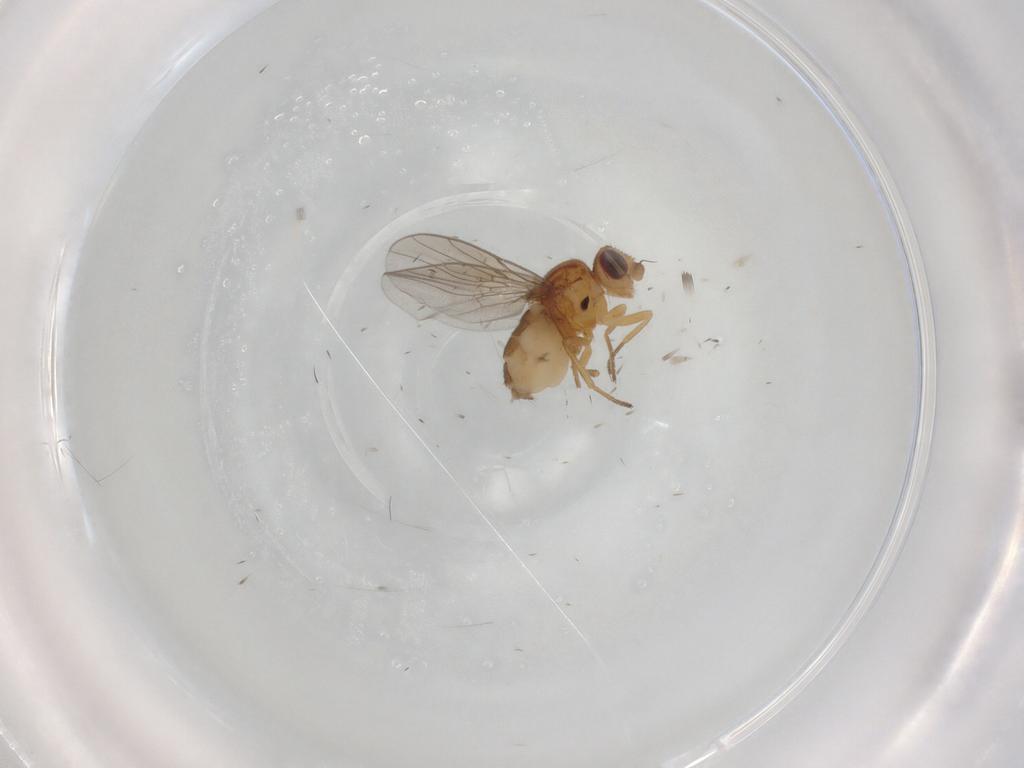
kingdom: Animalia
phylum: Arthropoda
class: Insecta
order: Diptera
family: Chloropidae
